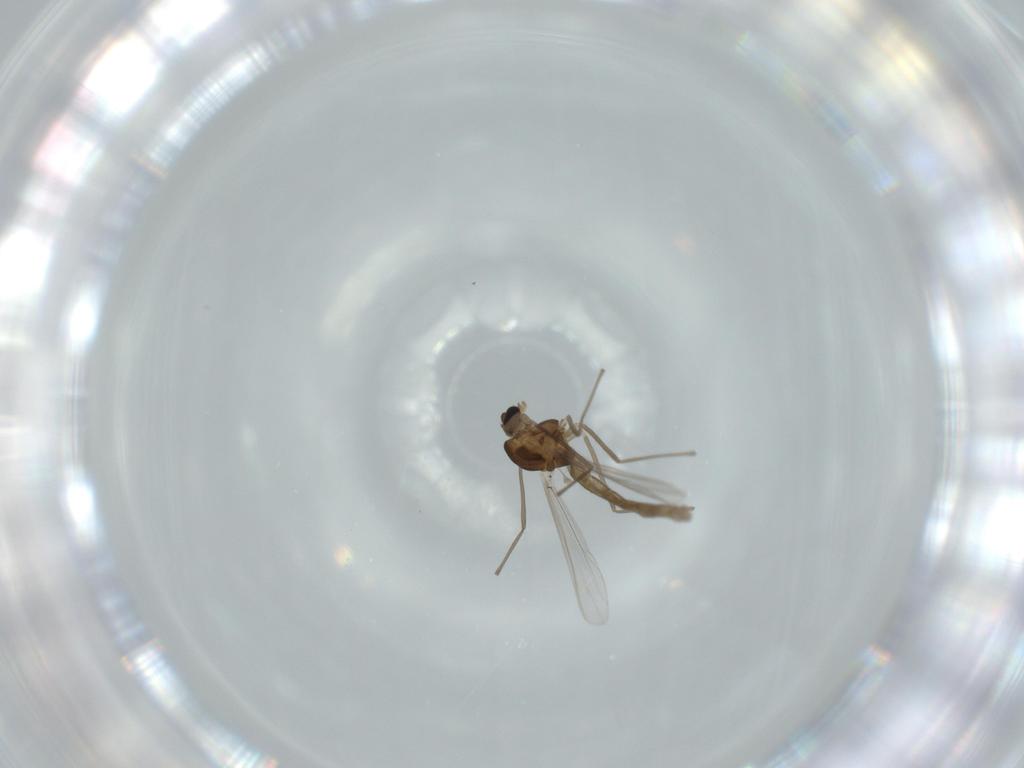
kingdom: Animalia
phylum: Arthropoda
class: Insecta
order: Diptera
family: Chironomidae
